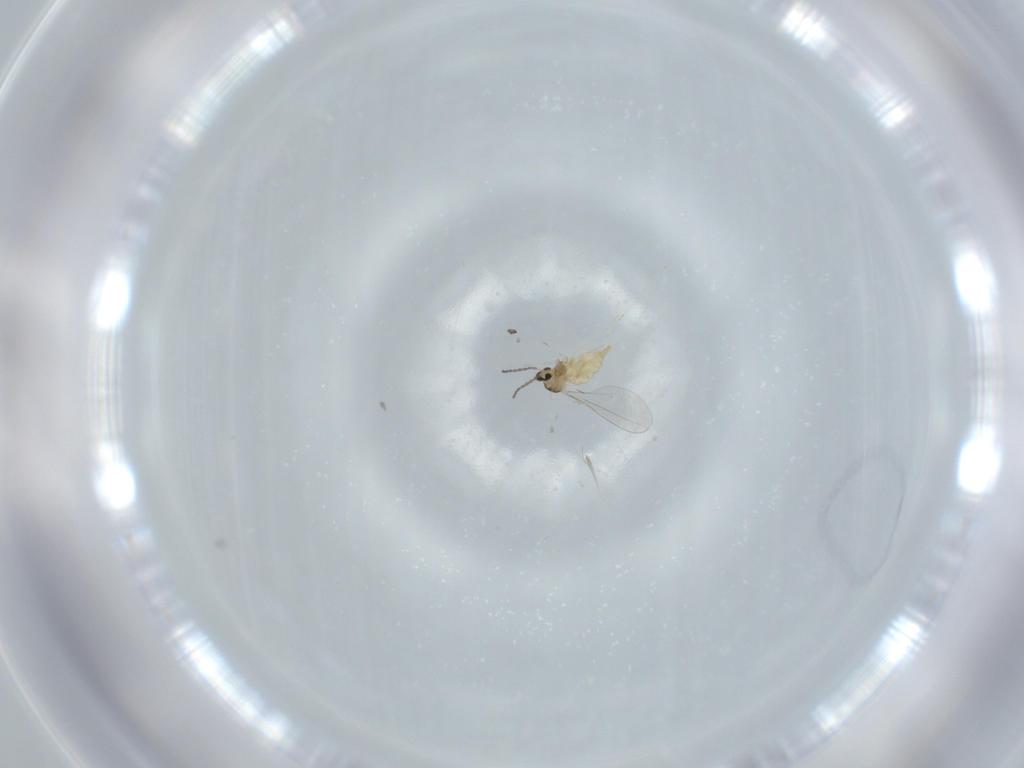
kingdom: Animalia
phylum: Arthropoda
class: Insecta
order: Diptera
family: Cecidomyiidae
